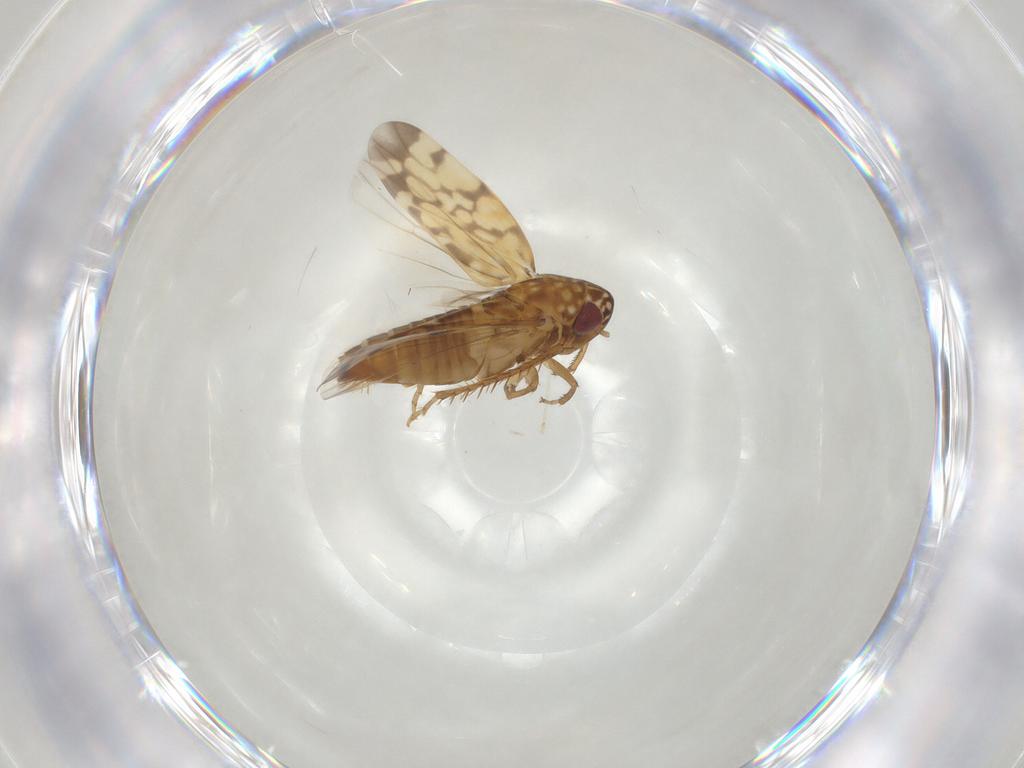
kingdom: Animalia
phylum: Arthropoda
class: Insecta
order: Hemiptera
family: Cicadellidae
